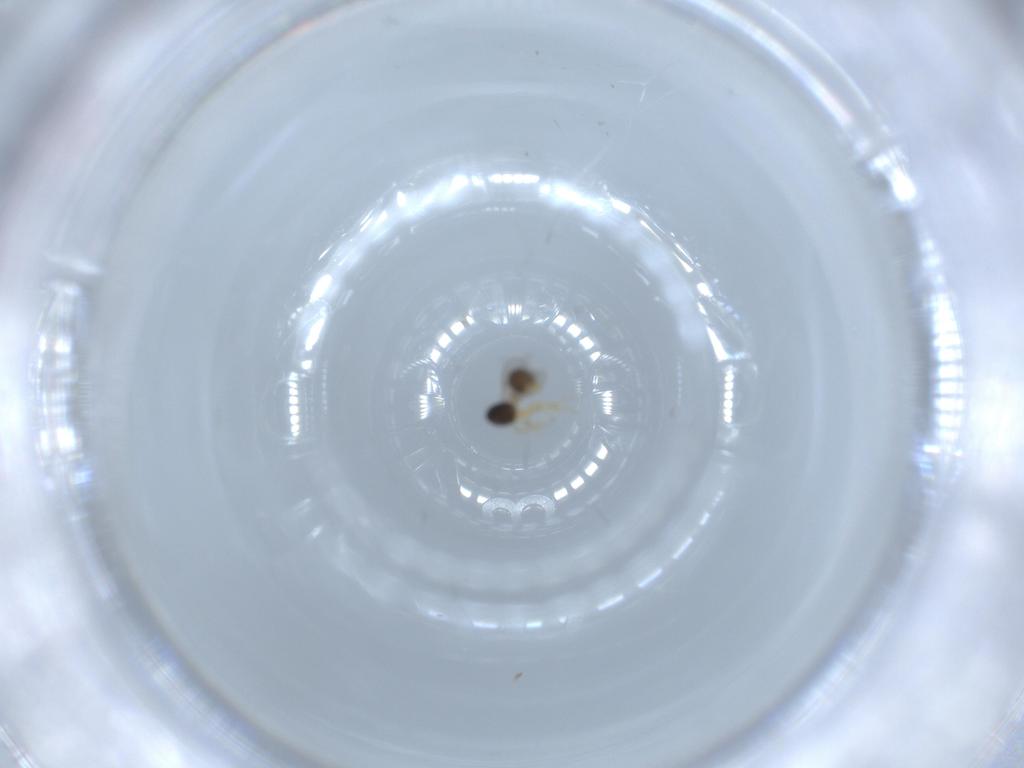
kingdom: Animalia
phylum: Arthropoda
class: Insecta
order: Hymenoptera
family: Scelionidae
